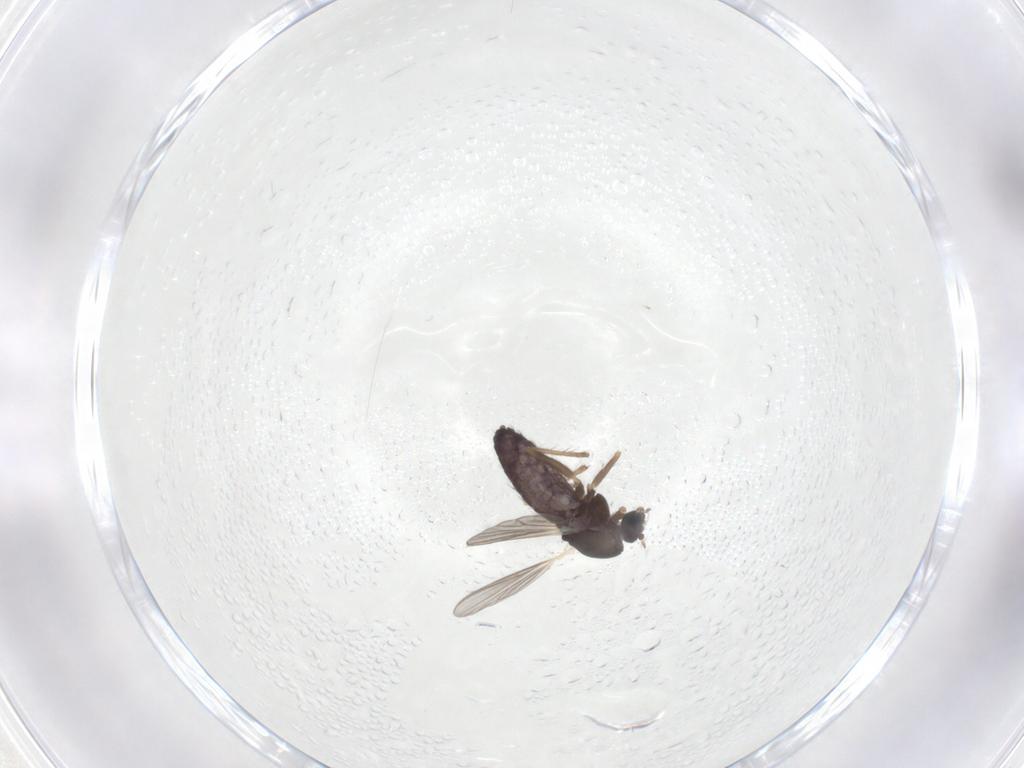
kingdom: Animalia
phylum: Arthropoda
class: Insecta
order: Diptera
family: Chironomidae
